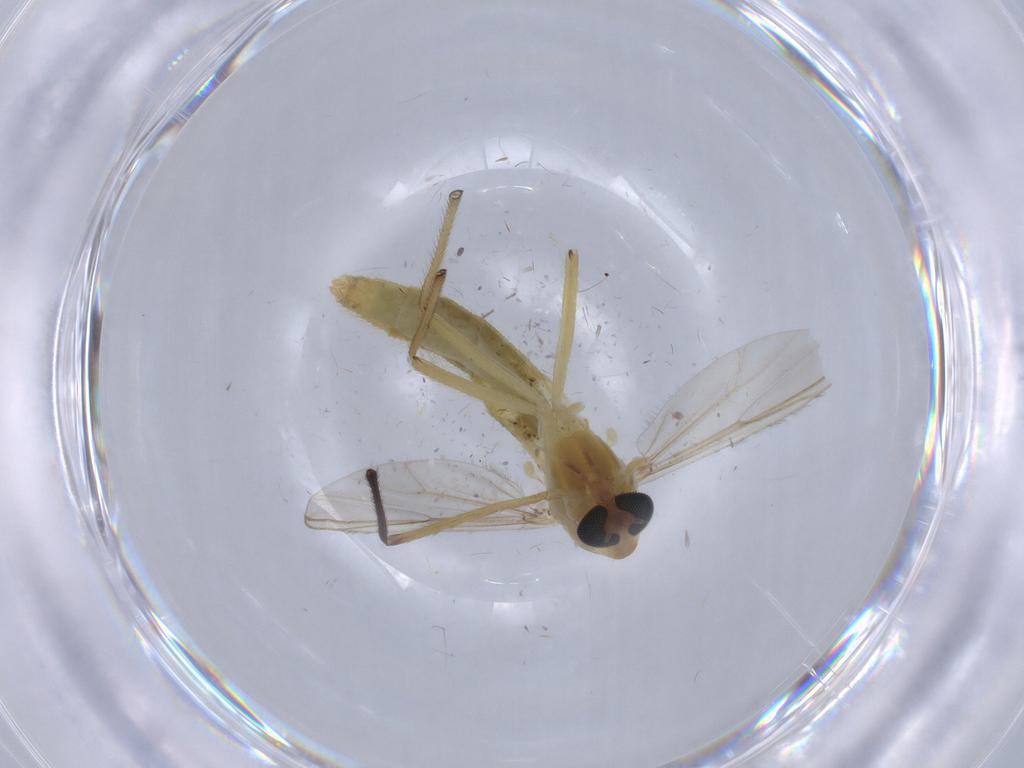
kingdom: Animalia
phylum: Arthropoda
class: Insecta
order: Diptera
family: Chironomidae
